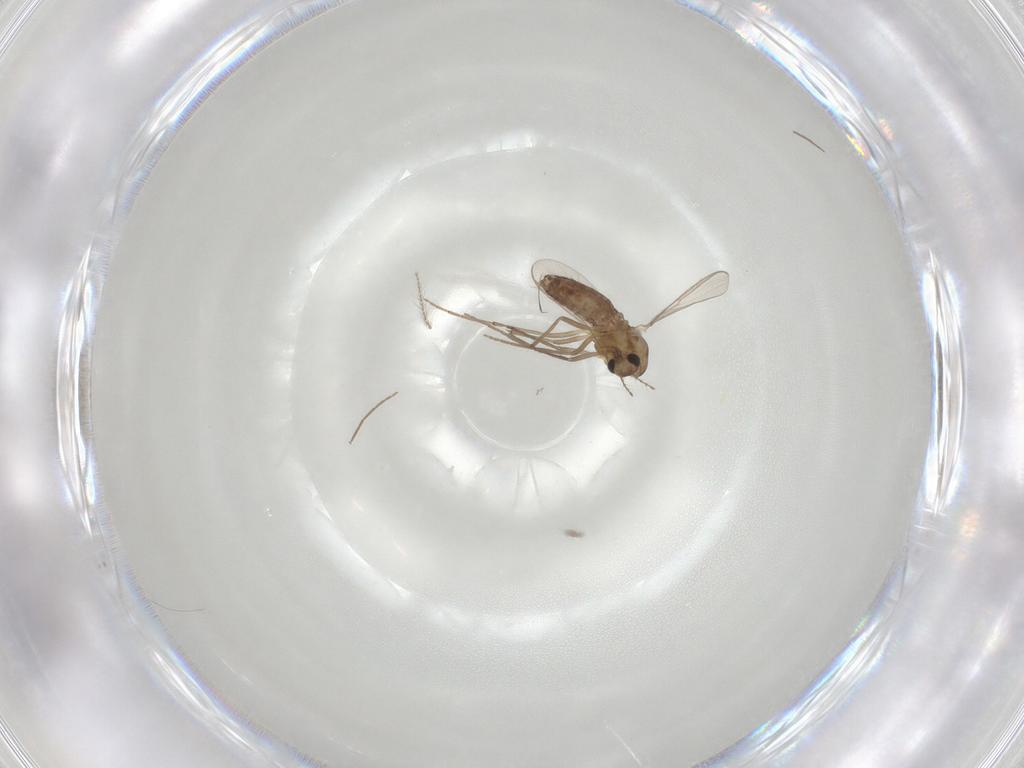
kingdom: Animalia
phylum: Arthropoda
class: Insecta
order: Diptera
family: Psychodidae
